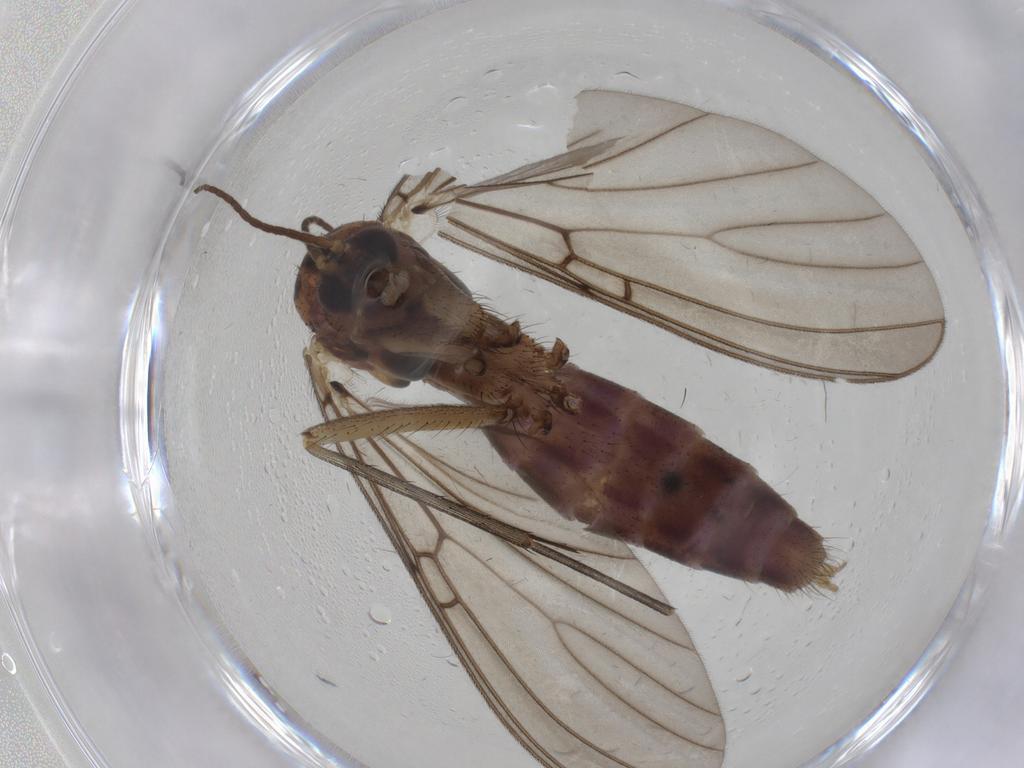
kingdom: Animalia
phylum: Arthropoda
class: Insecta
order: Diptera
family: Mycetophilidae
